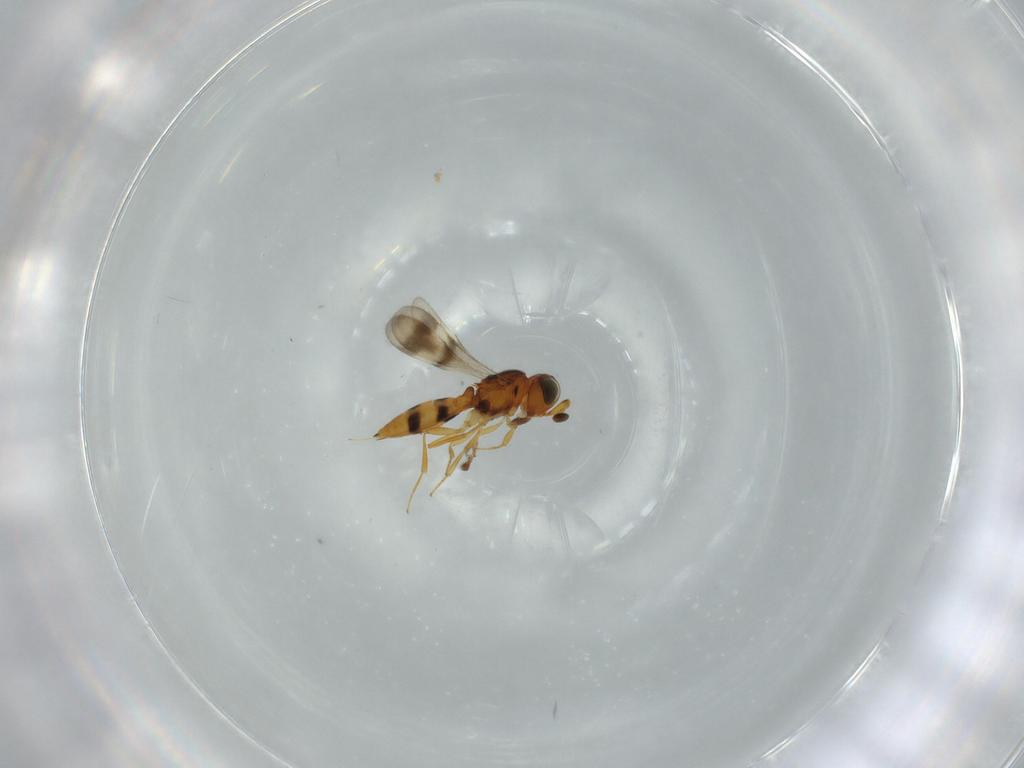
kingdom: Animalia
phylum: Arthropoda
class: Insecta
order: Hymenoptera
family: Scelionidae
